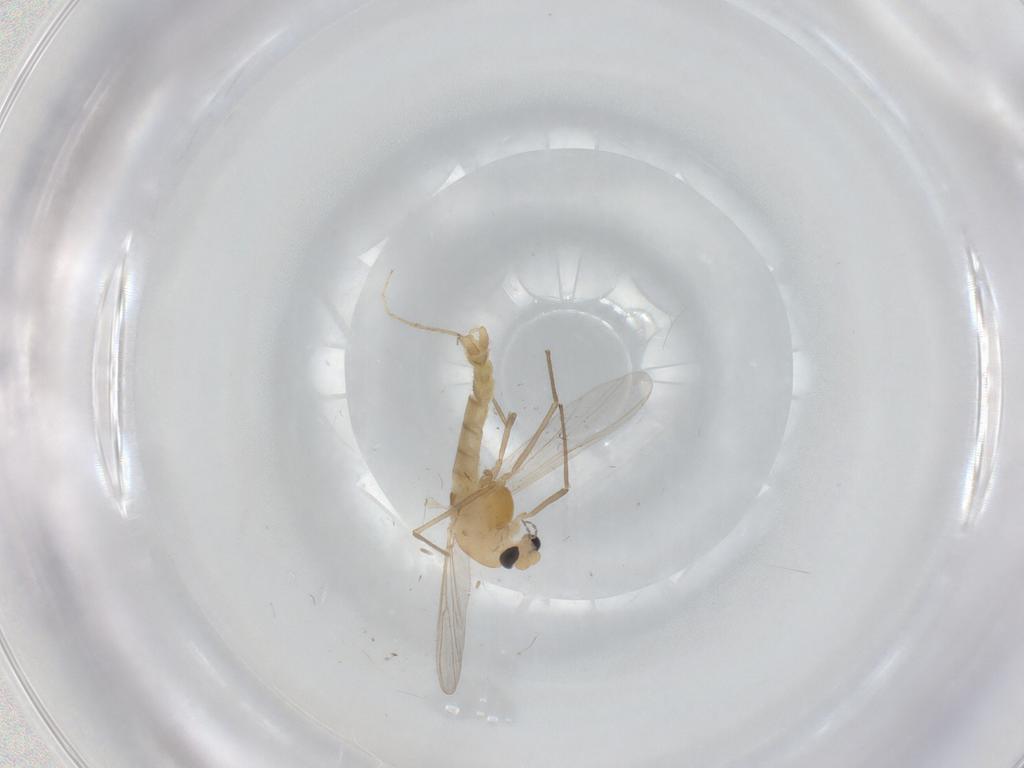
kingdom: Animalia
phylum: Arthropoda
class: Insecta
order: Diptera
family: Chironomidae
